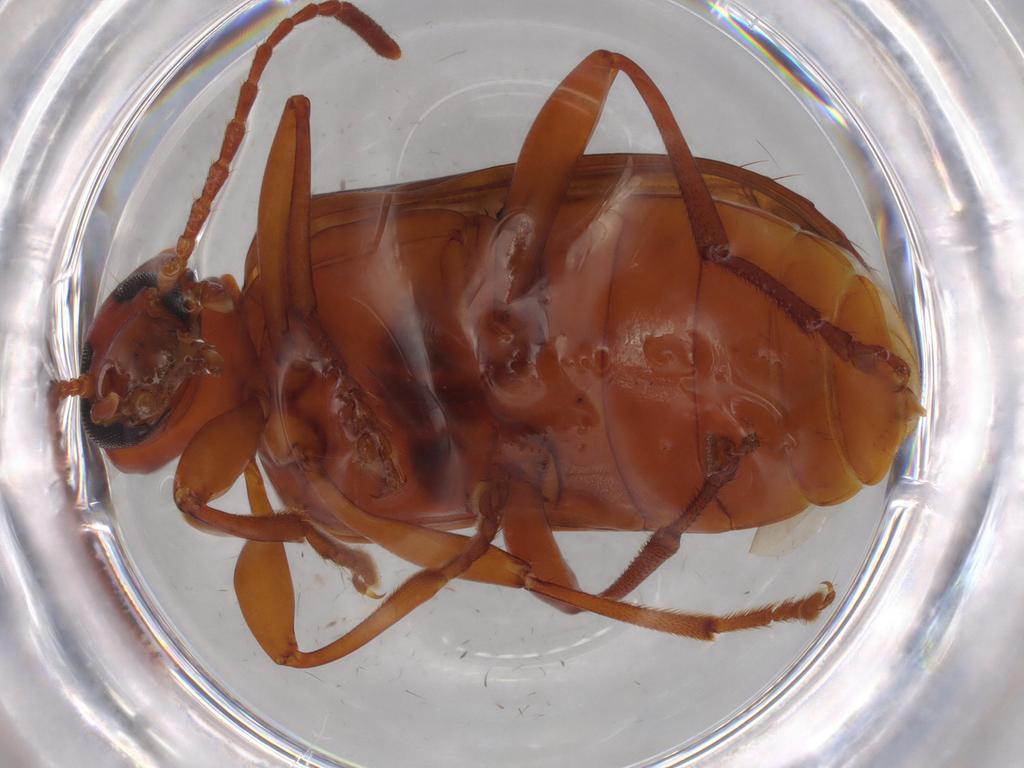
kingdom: Animalia
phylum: Arthropoda
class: Insecta
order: Coleoptera
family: Tenebrionidae
